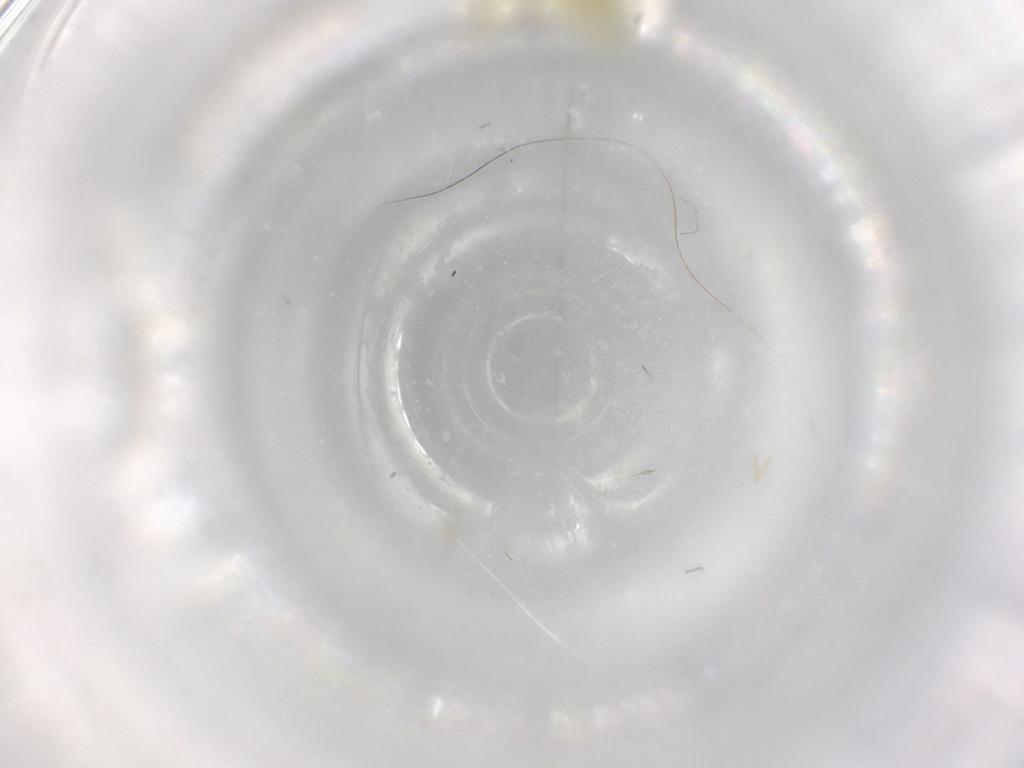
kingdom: Animalia
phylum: Arthropoda
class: Insecta
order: Hemiptera
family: Cicadellidae
